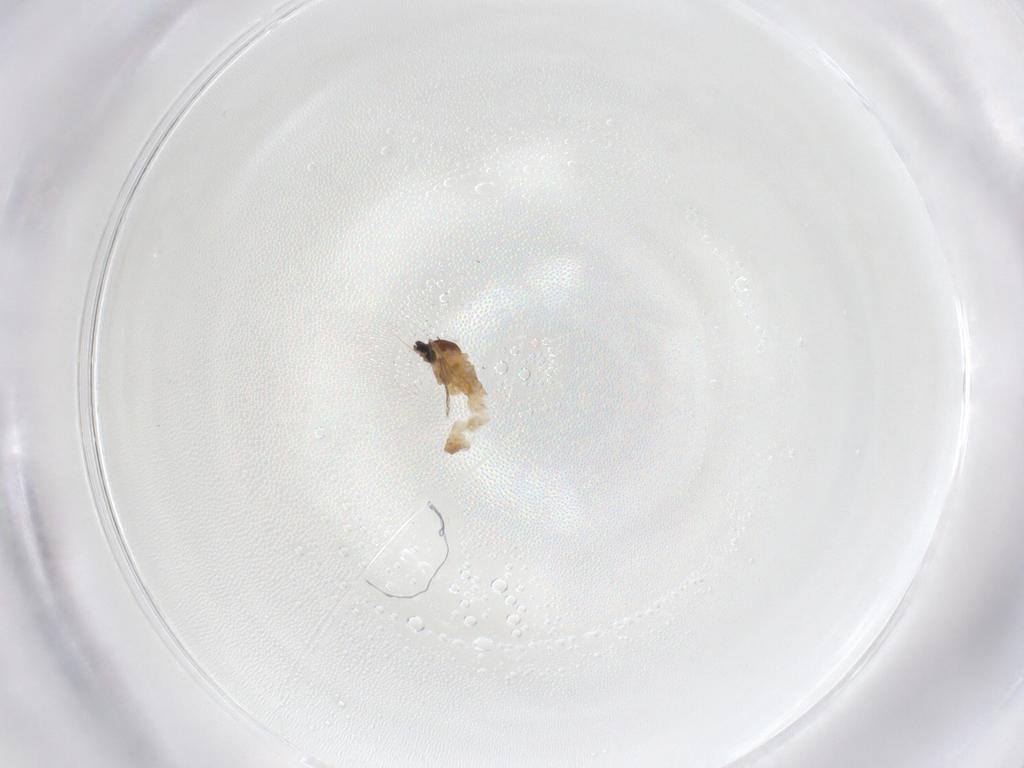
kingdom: Animalia
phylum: Arthropoda
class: Insecta
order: Diptera
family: Cecidomyiidae
